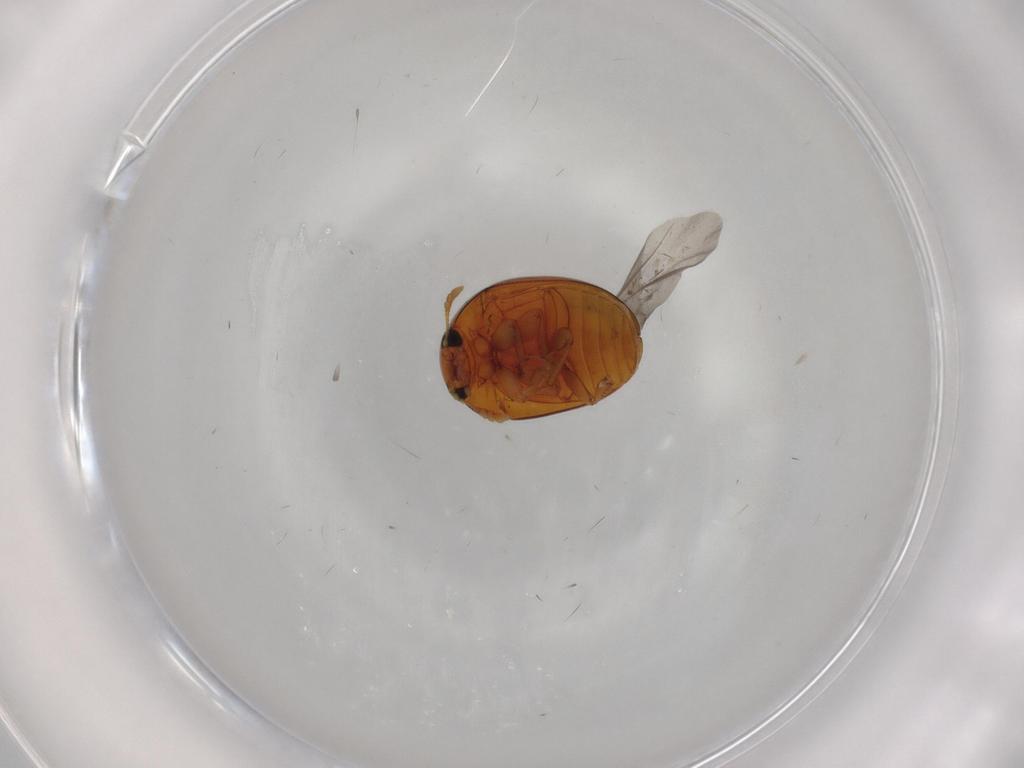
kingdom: Animalia
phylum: Arthropoda
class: Insecta
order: Coleoptera
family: Phalacridae
